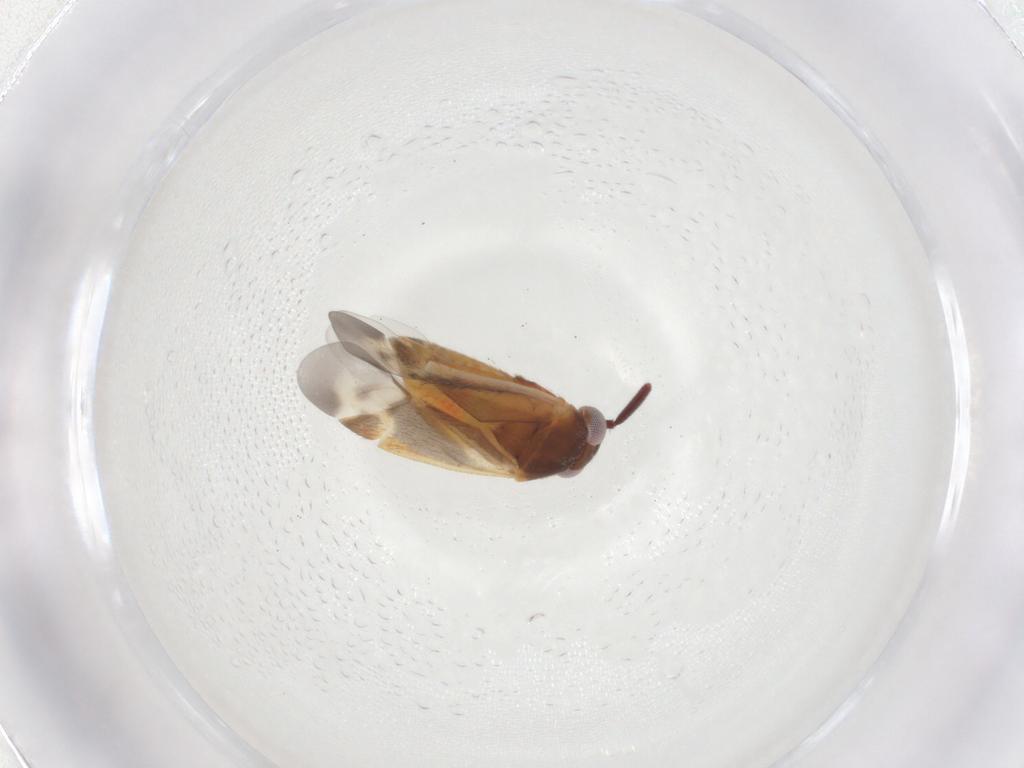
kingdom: Animalia
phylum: Arthropoda
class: Insecta
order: Hemiptera
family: Miridae
